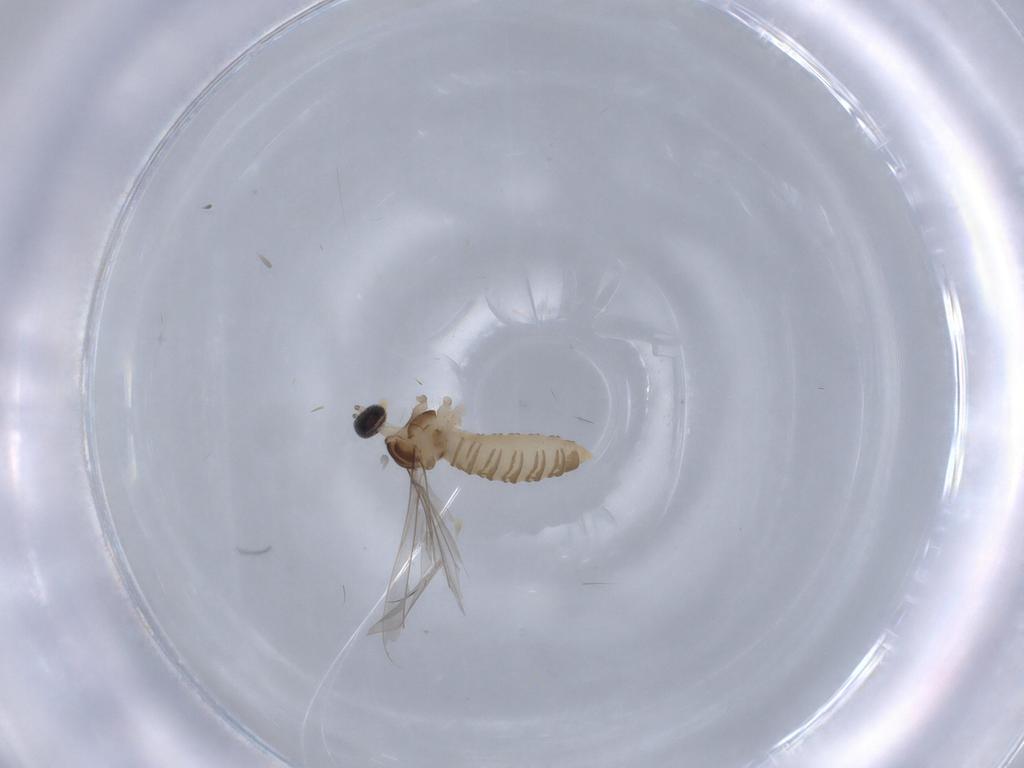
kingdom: Animalia
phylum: Arthropoda
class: Insecta
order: Diptera
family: Cecidomyiidae
